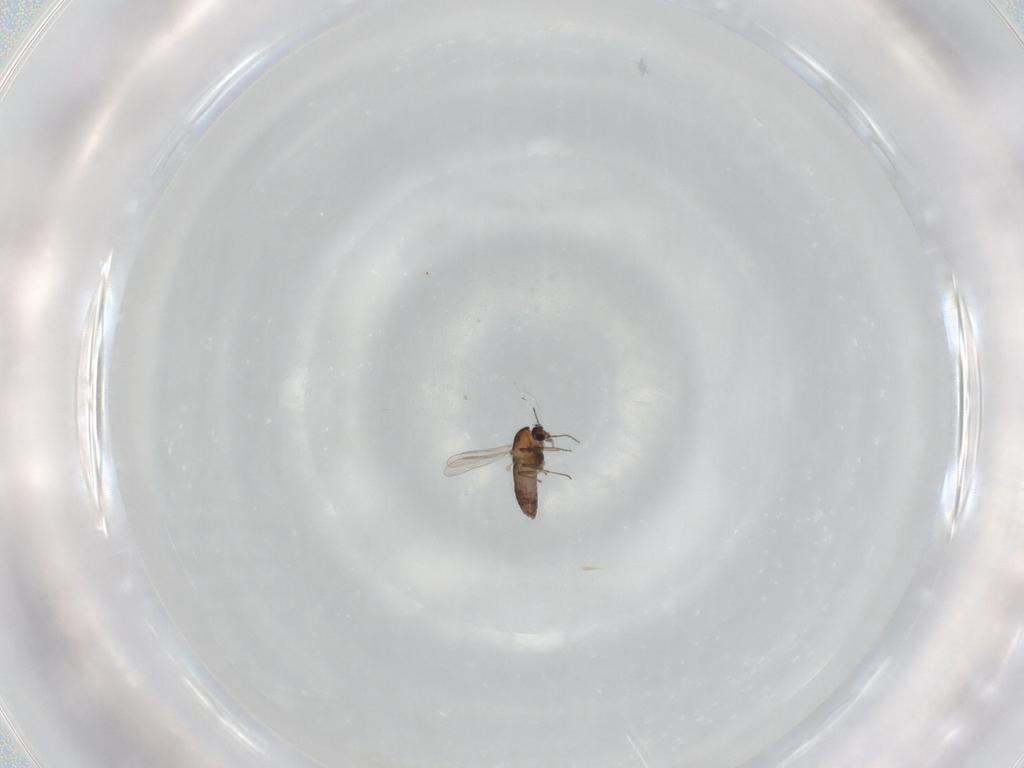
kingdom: Animalia
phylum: Arthropoda
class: Insecta
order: Diptera
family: Chironomidae
